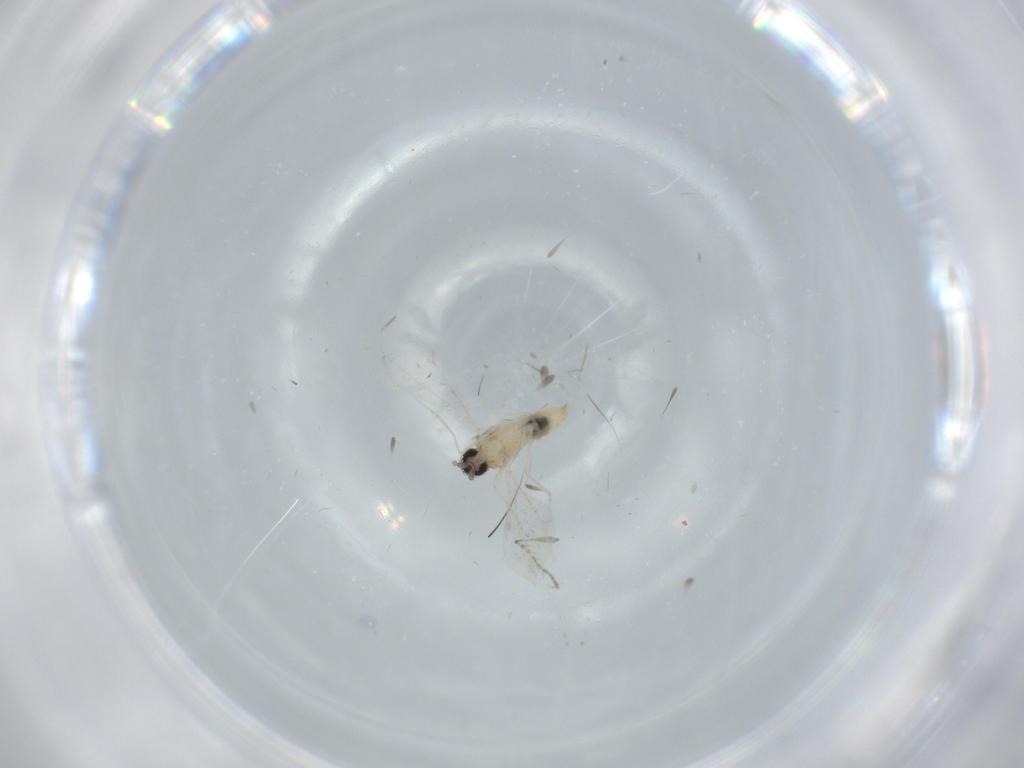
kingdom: Animalia
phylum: Arthropoda
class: Insecta
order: Diptera
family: Cecidomyiidae
